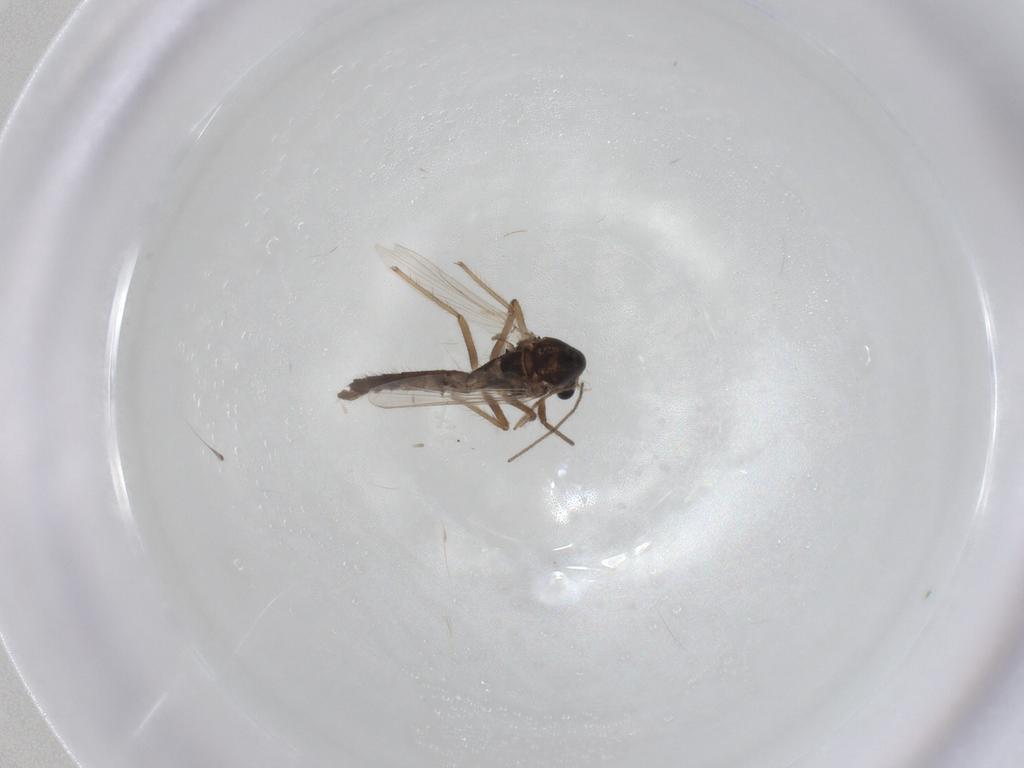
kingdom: Animalia
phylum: Arthropoda
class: Insecta
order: Diptera
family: Chironomidae
